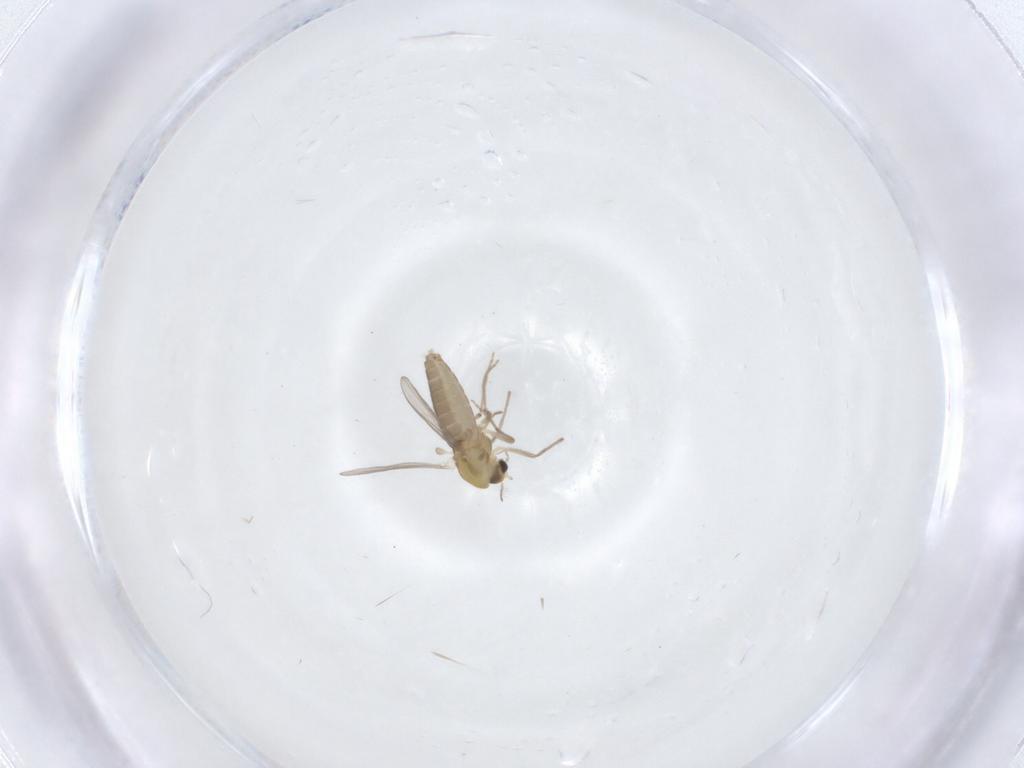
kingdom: Animalia
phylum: Arthropoda
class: Insecta
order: Diptera
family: Chironomidae
